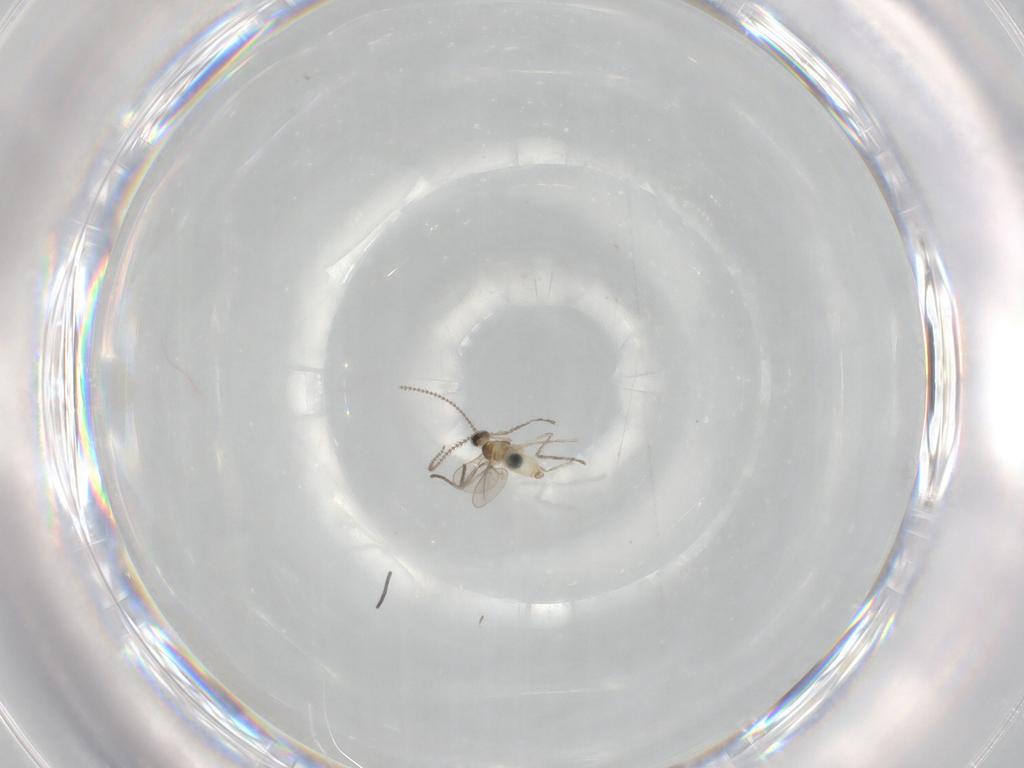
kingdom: Animalia
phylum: Arthropoda
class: Insecta
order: Diptera
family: Cecidomyiidae
